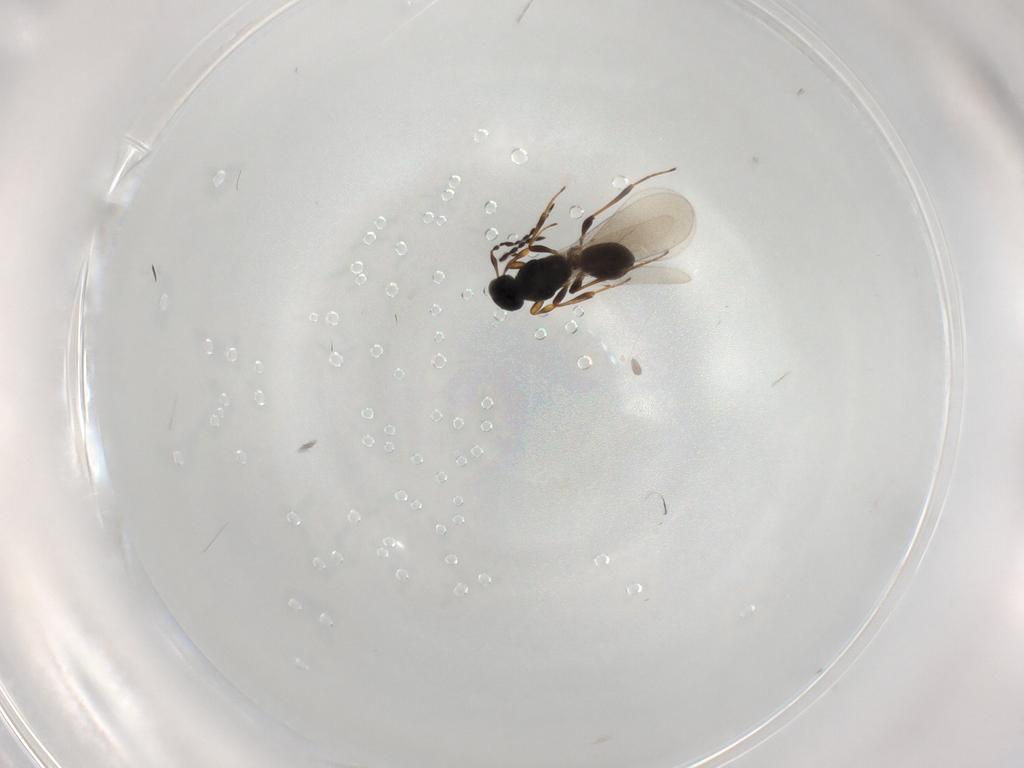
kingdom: Animalia
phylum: Arthropoda
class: Insecta
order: Hymenoptera
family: Platygastridae
